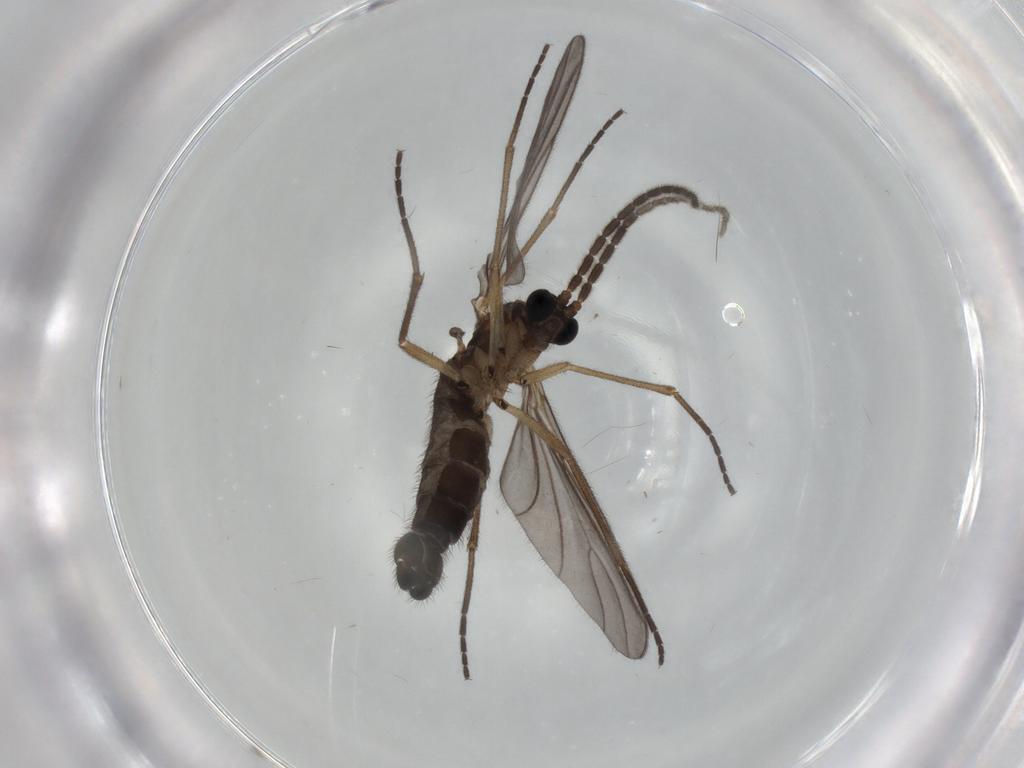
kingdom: Animalia
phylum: Arthropoda
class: Insecta
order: Diptera
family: Sciaridae
